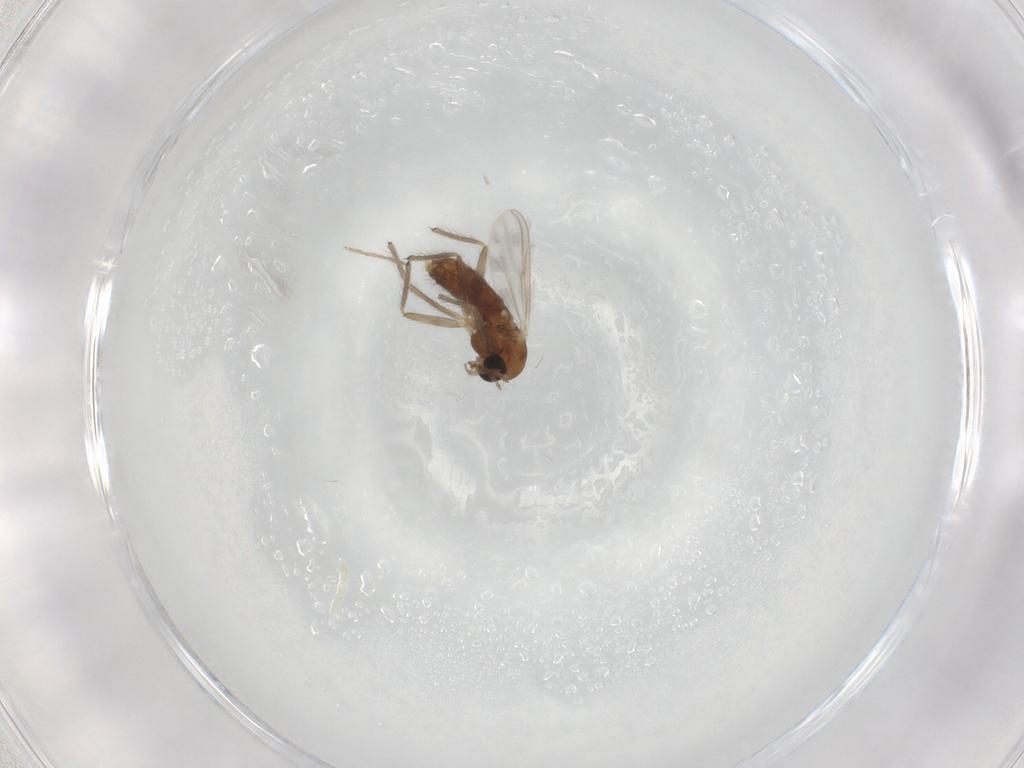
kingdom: Animalia
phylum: Arthropoda
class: Insecta
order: Diptera
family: Chironomidae
